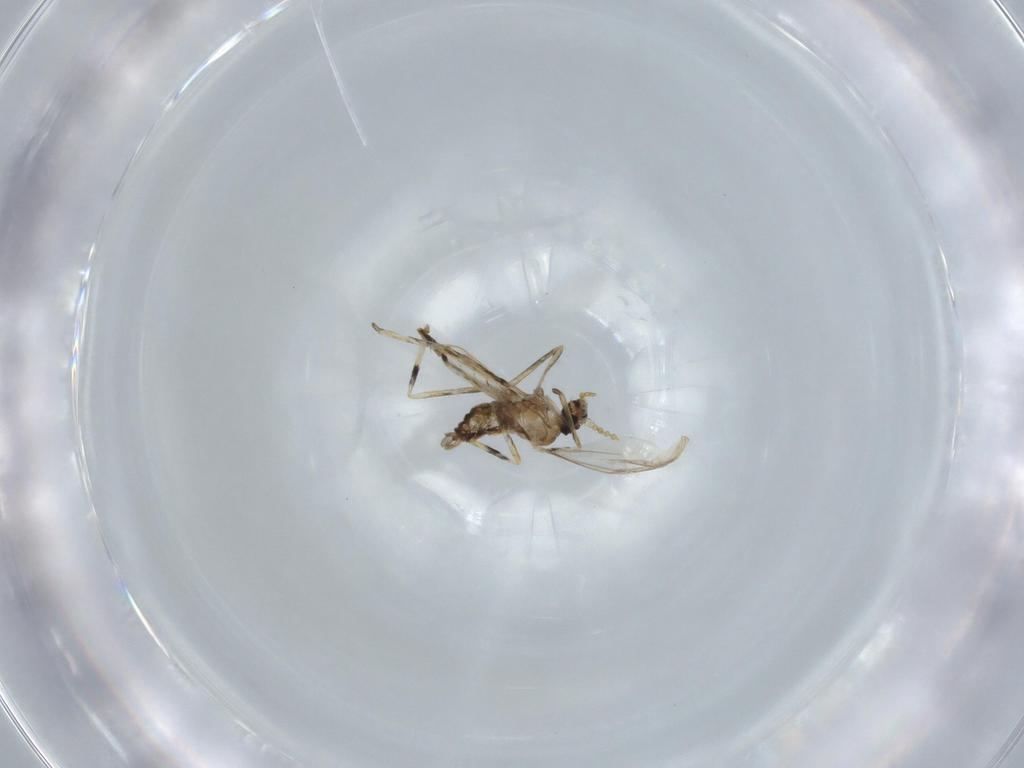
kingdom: Animalia
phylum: Arthropoda
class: Insecta
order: Diptera
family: Cecidomyiidae
